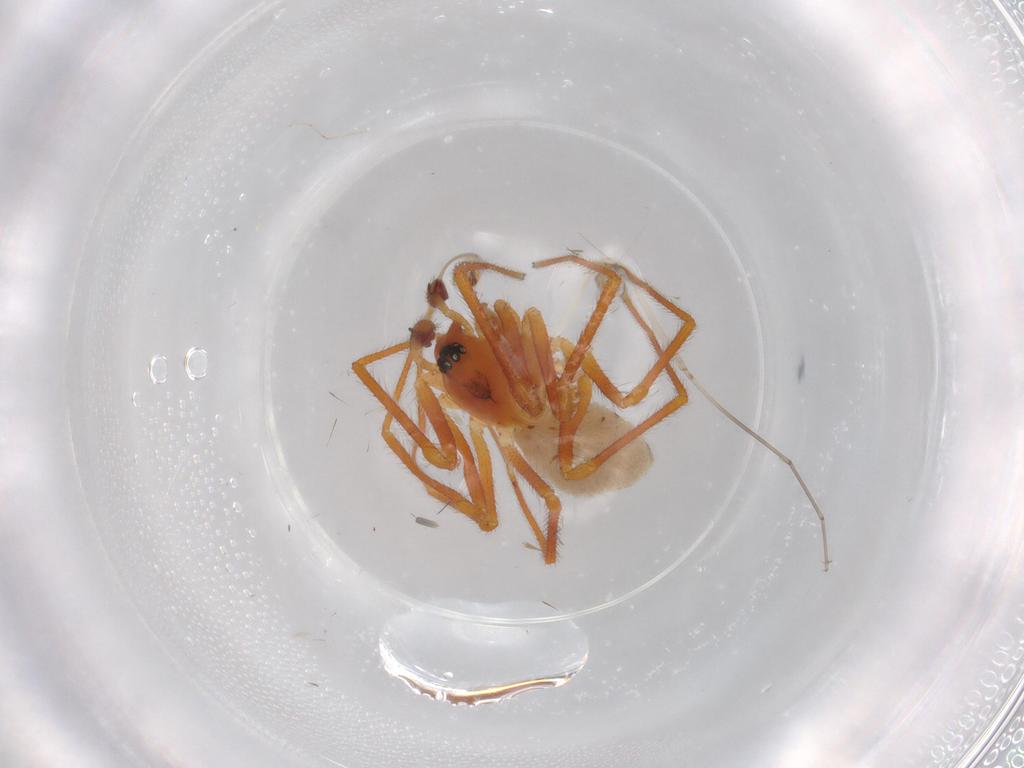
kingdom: Animalia
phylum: Arthropoda
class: Arachnida
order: Araneae
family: Linyphiidae
